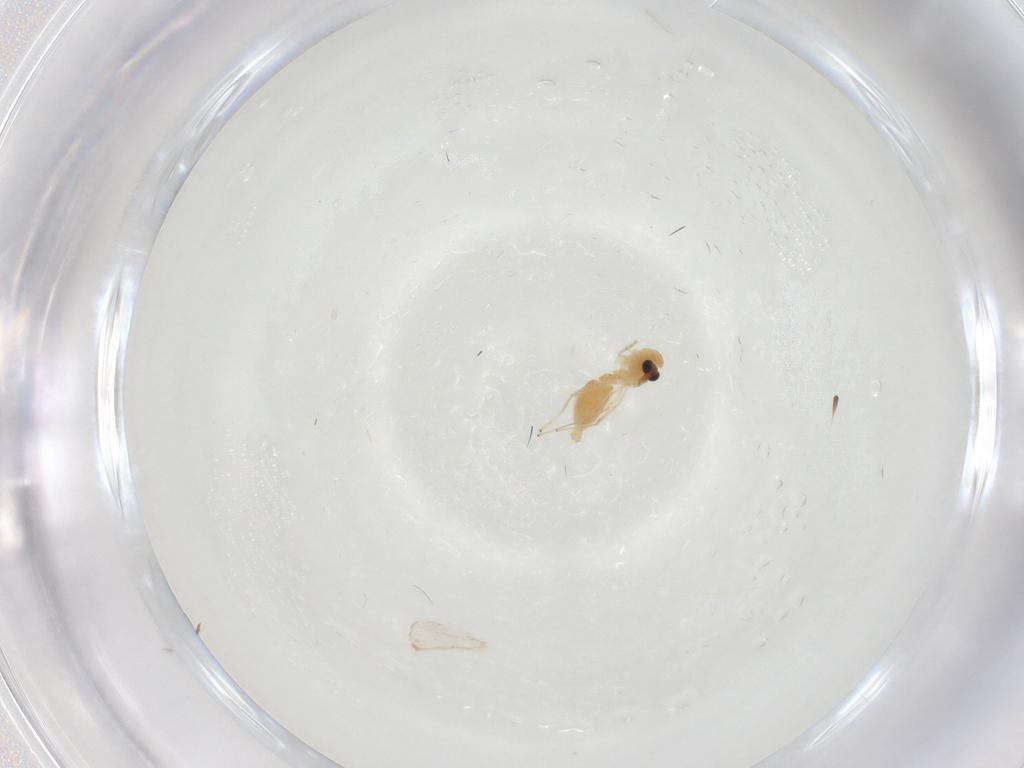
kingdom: Animalia
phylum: Arthropoda
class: Insecta
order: Diptera
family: Chironomidae
